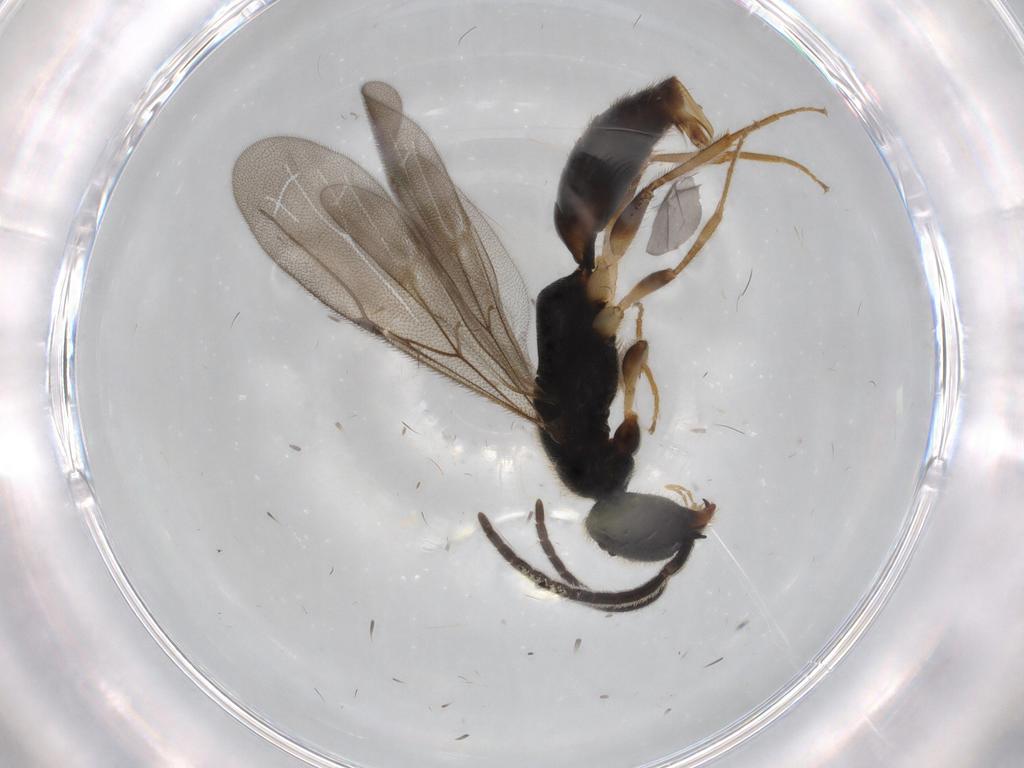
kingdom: Animalia
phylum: Arthropoda
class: Insecta
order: Hymenoptera
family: Bethylidae
